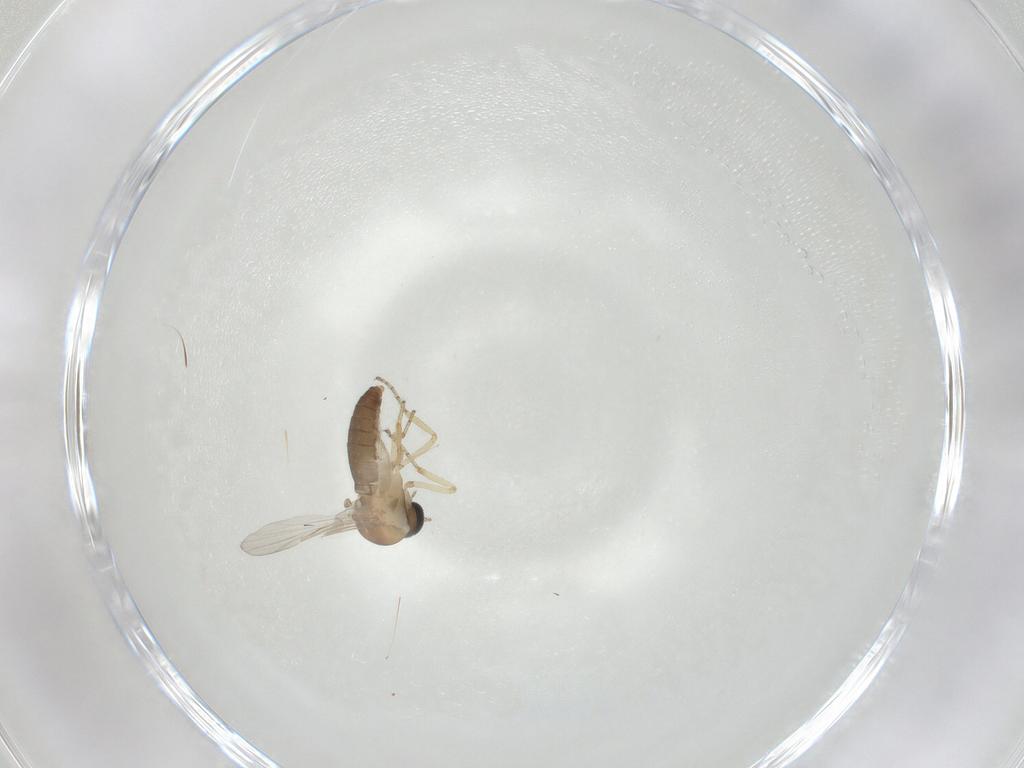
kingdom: Animalia
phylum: Arthropoda
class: Insecta
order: Diptera
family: Ceratopogonidae
